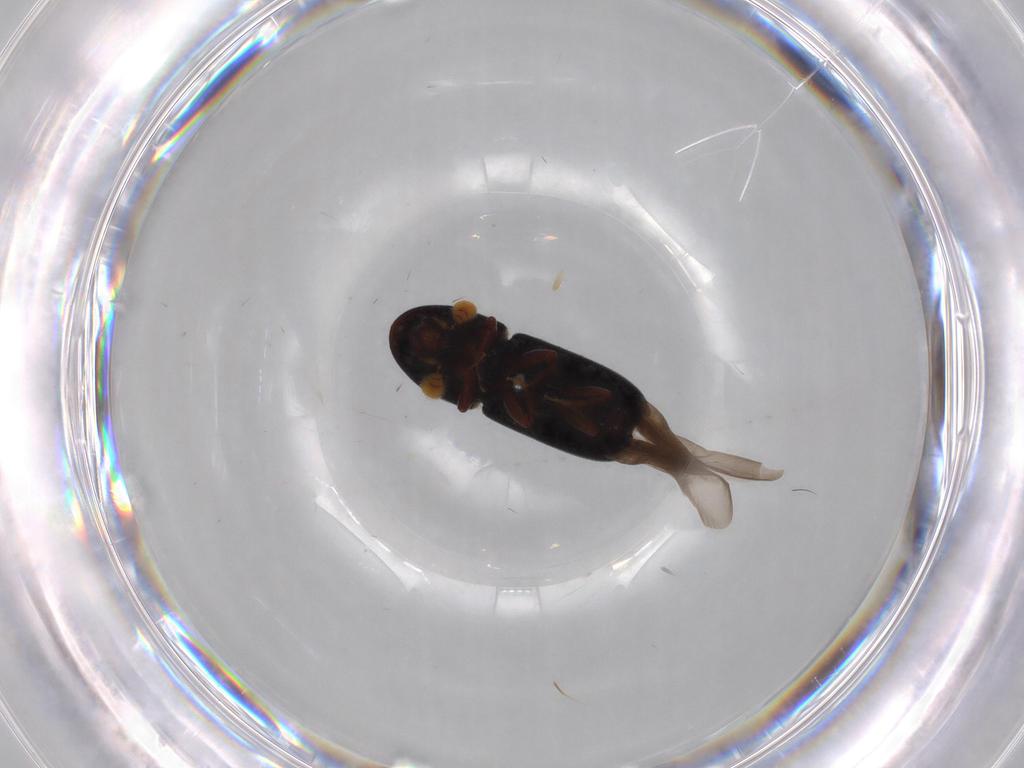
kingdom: Animalia
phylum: Arthropoda
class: Insecta
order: Coleoptera
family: Curculionidae
